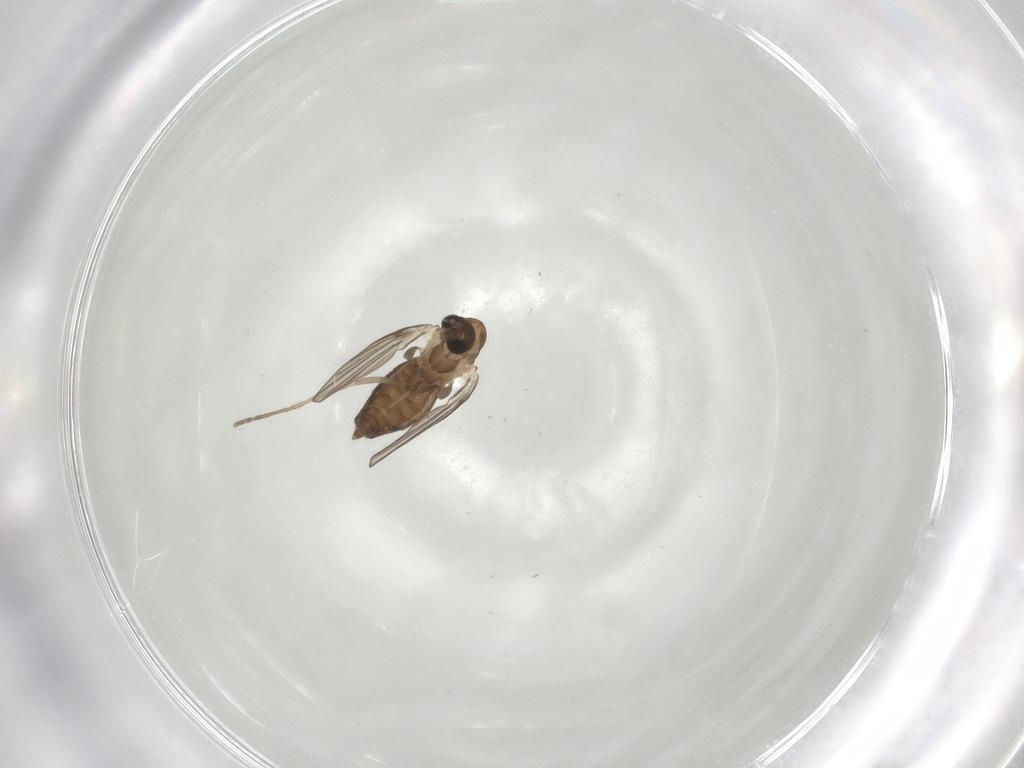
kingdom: Animalia
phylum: Arthropoda
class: Insecta
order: Diptera
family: Psychodidae
